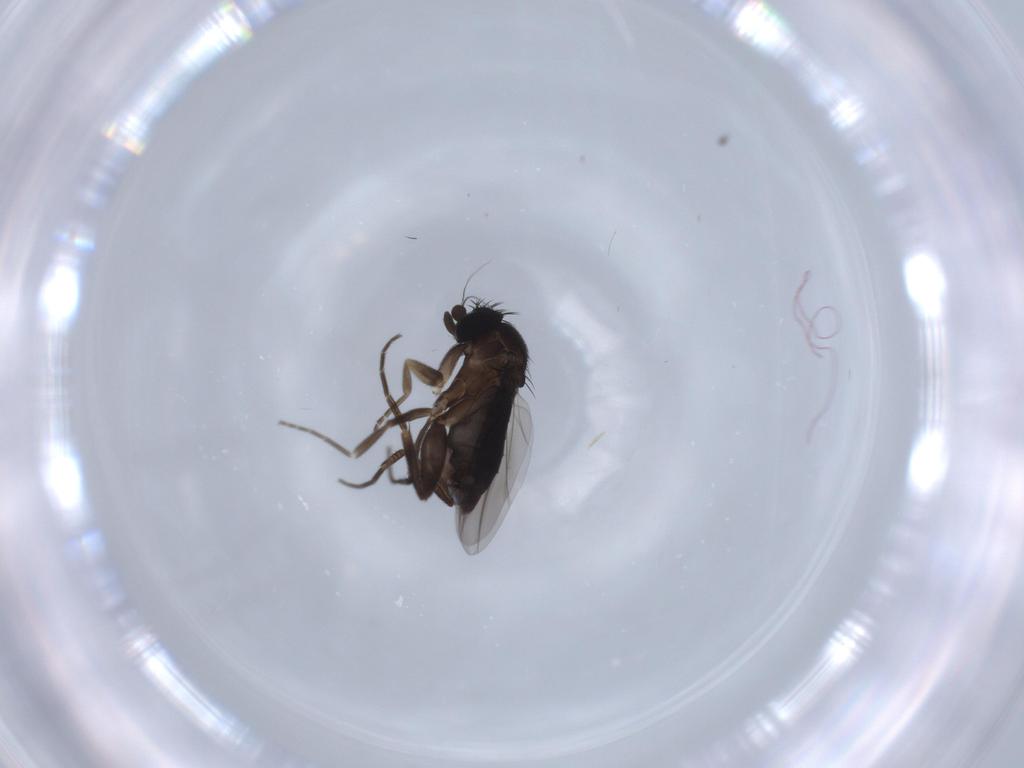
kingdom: Animalia
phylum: Arthropoda
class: Insecta
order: Diptera
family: Phoridae
